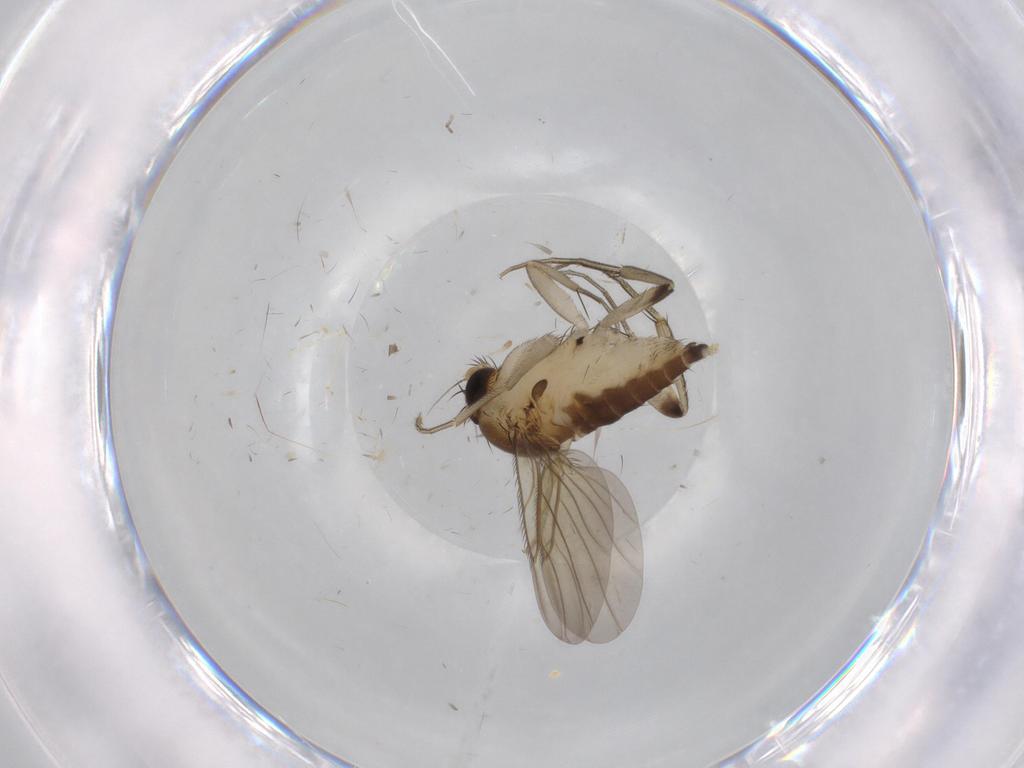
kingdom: Animalia
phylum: Arthropoda
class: Insecta
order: Diptera
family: Phoridae
